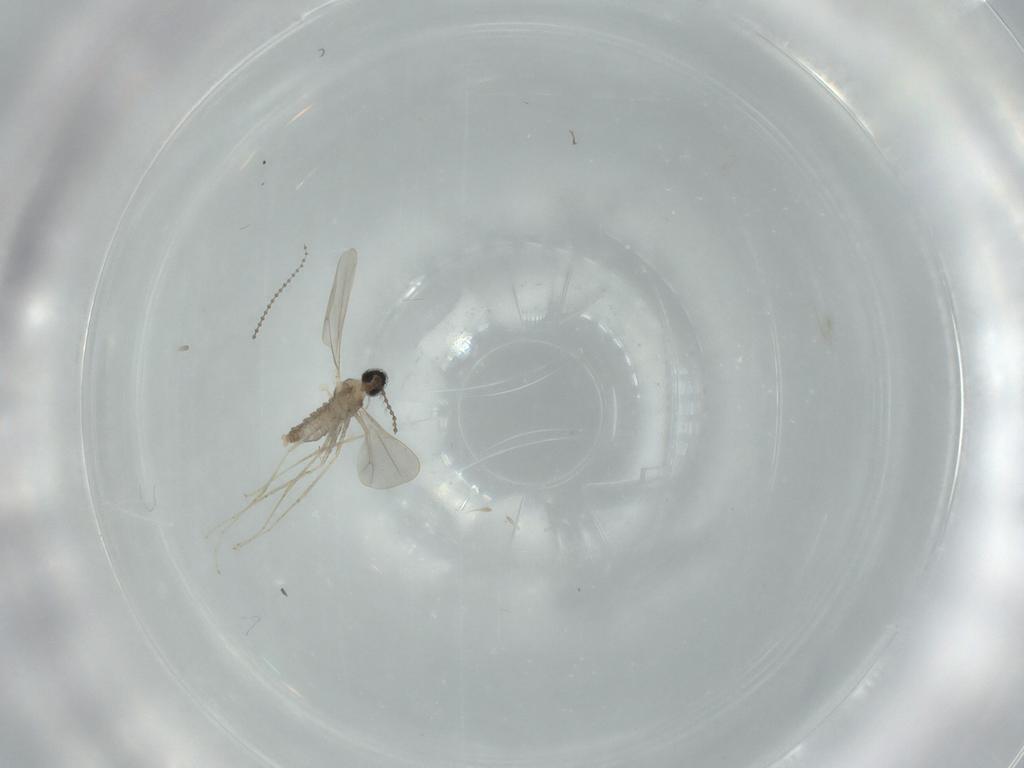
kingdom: Animalia
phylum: Arthropoda
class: Insecta
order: Diptera
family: Cecidomyiidae
